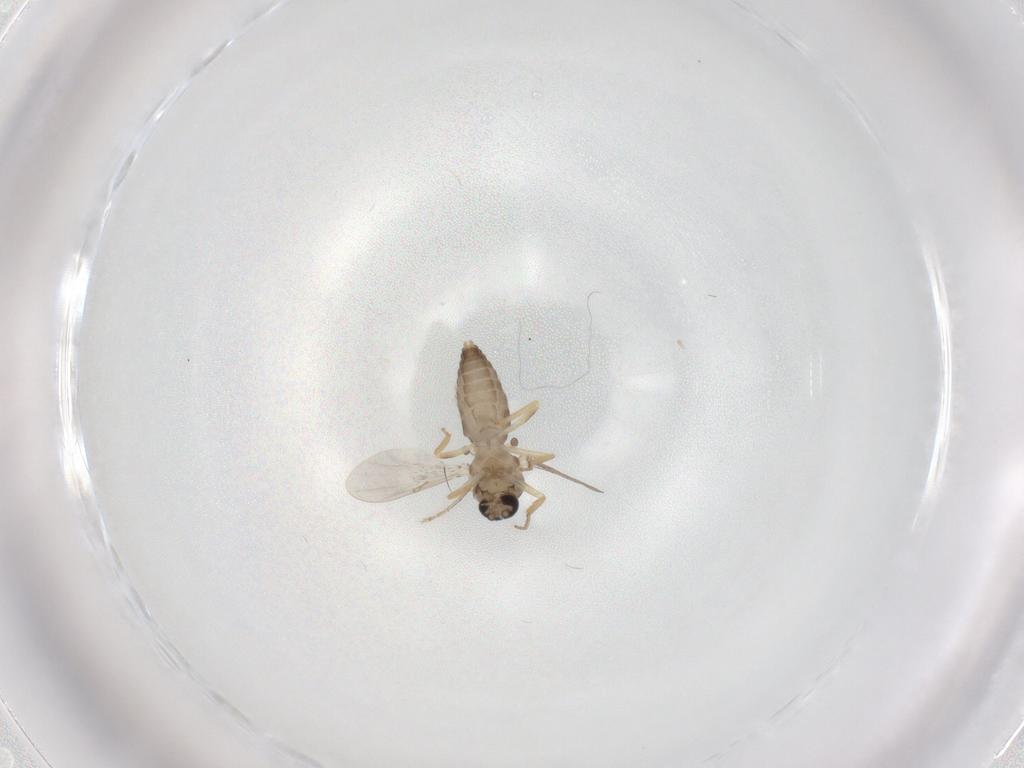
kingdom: Animalia
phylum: Arthropoda
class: Insecta
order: Diptera
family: Ceratopogonidae
